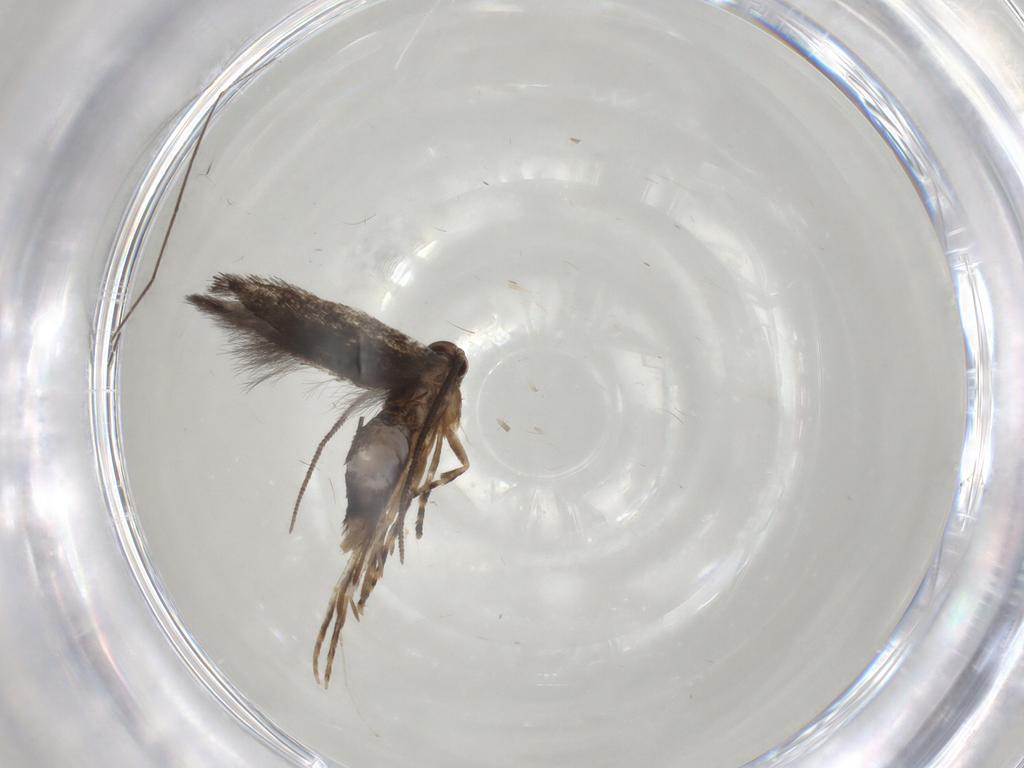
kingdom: Animalia
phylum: Arthropoda
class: Insecta
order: Lepidoptera
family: Elachistidae
